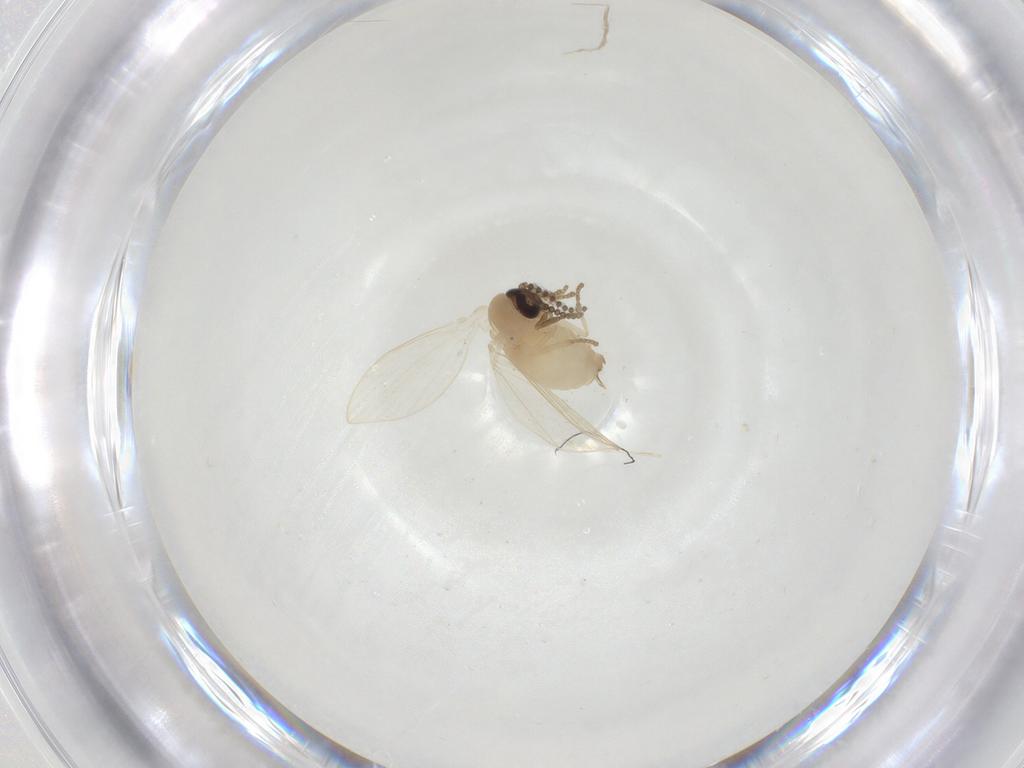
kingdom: Animalia
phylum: Arthropoda
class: Insecta
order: Diptera
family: Psychodidae
